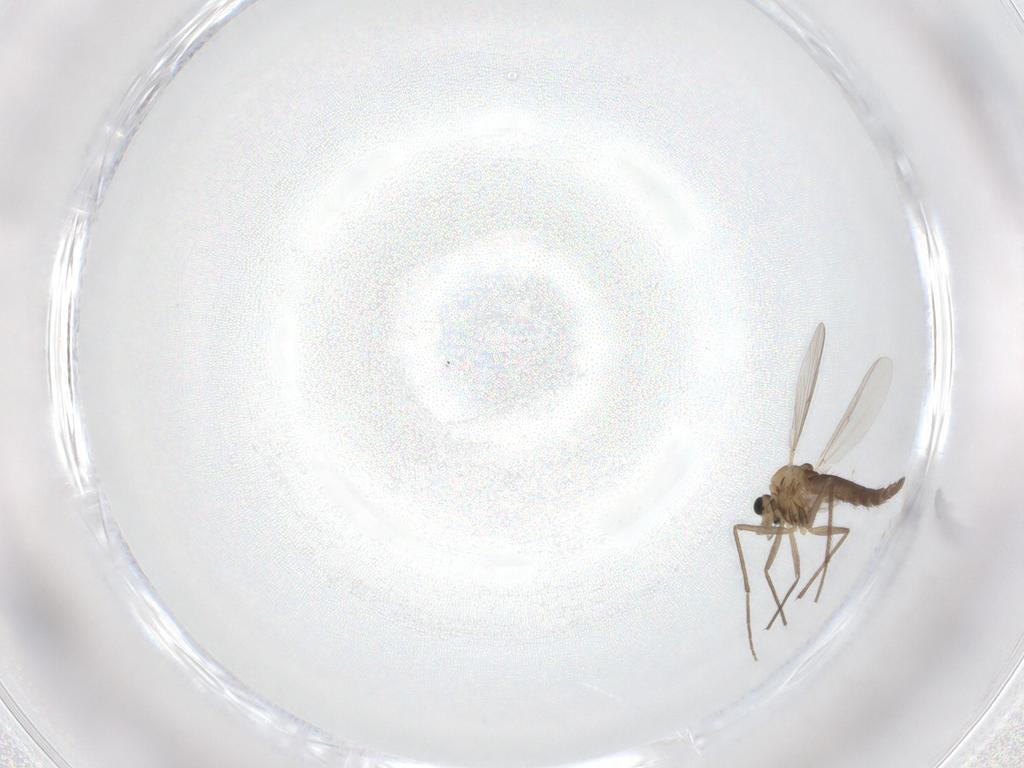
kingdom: Animalia
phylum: Arthropoda
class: Insecta
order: Diptera
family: Chironomidae
